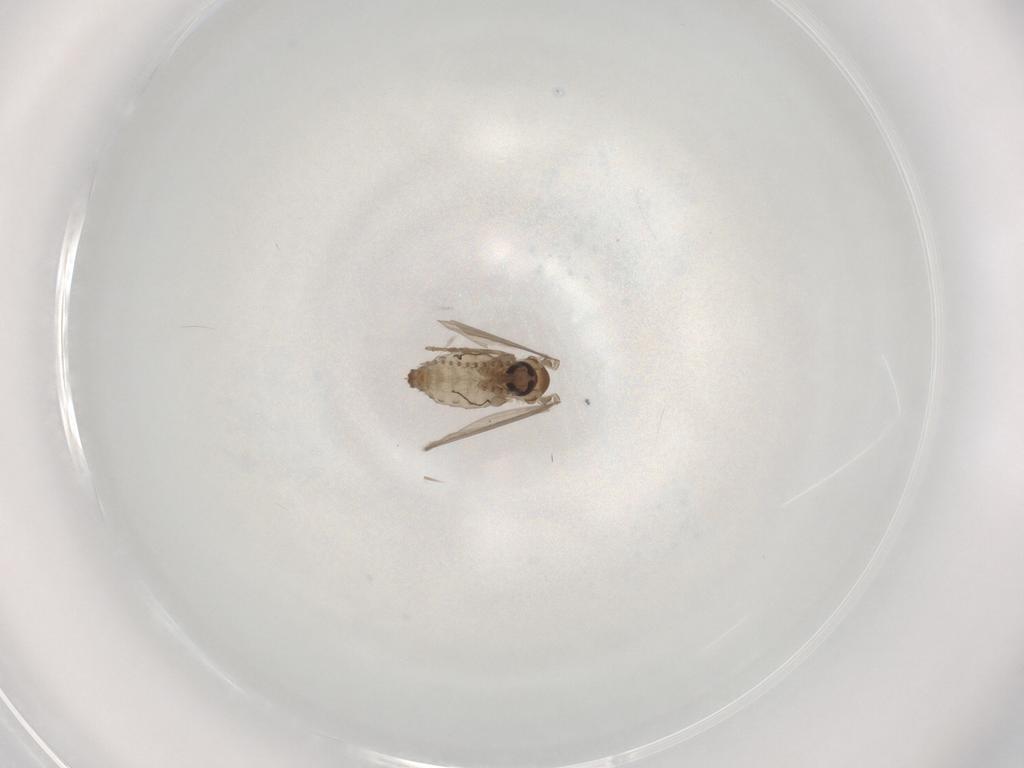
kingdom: Animalia
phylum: Arthropoda
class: Insecta
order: Diptera
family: Psychodidae
